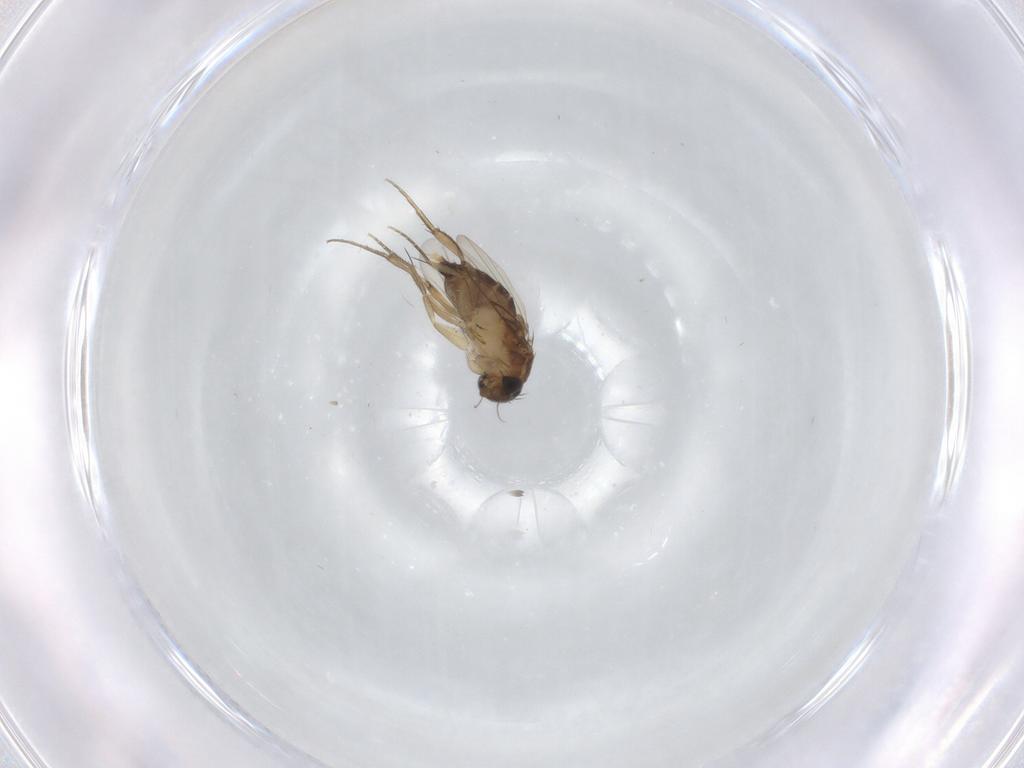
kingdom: Animalia
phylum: Arthropoda
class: Insecta
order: Diptera
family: Phoridae
